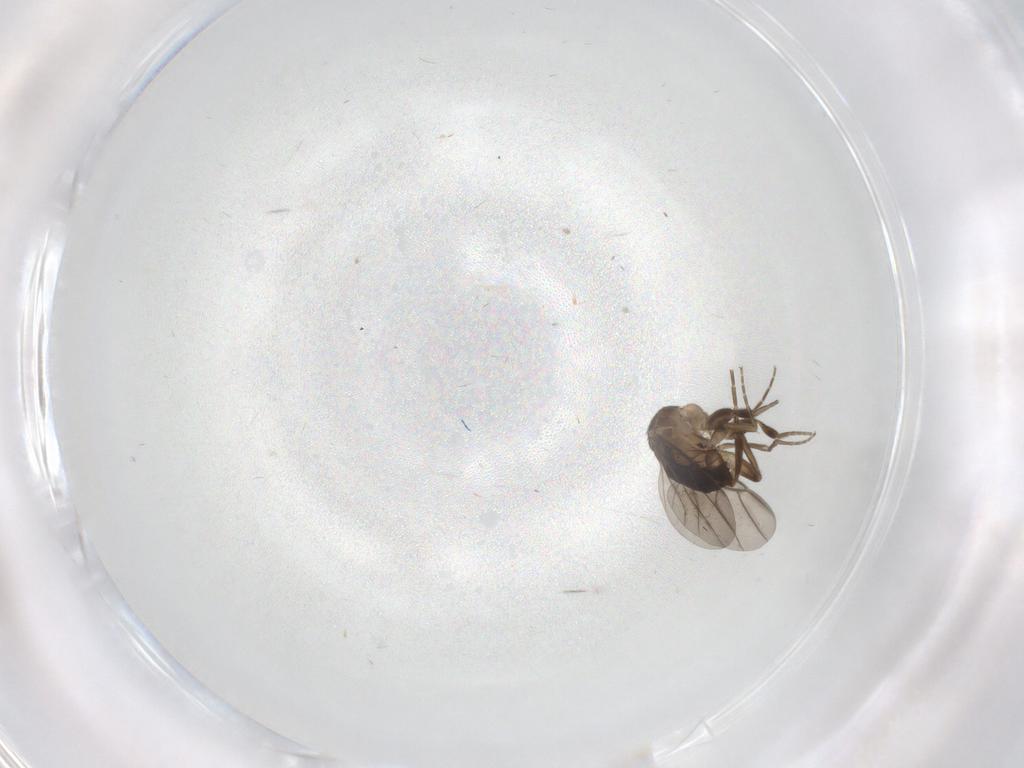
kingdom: Animalia
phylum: Arthropoda
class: Insecta
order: Diptera
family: Phoridae
